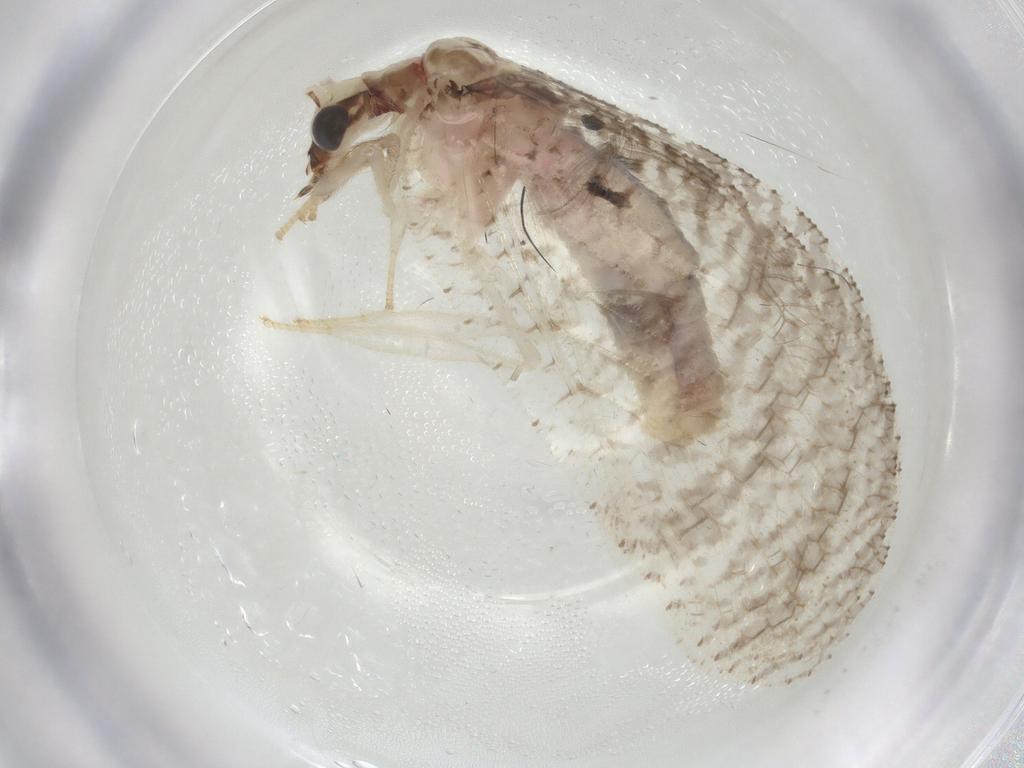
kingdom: Animalia
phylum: Arthropoda
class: Insecta
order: Neuroptera
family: Hemerobiidae
